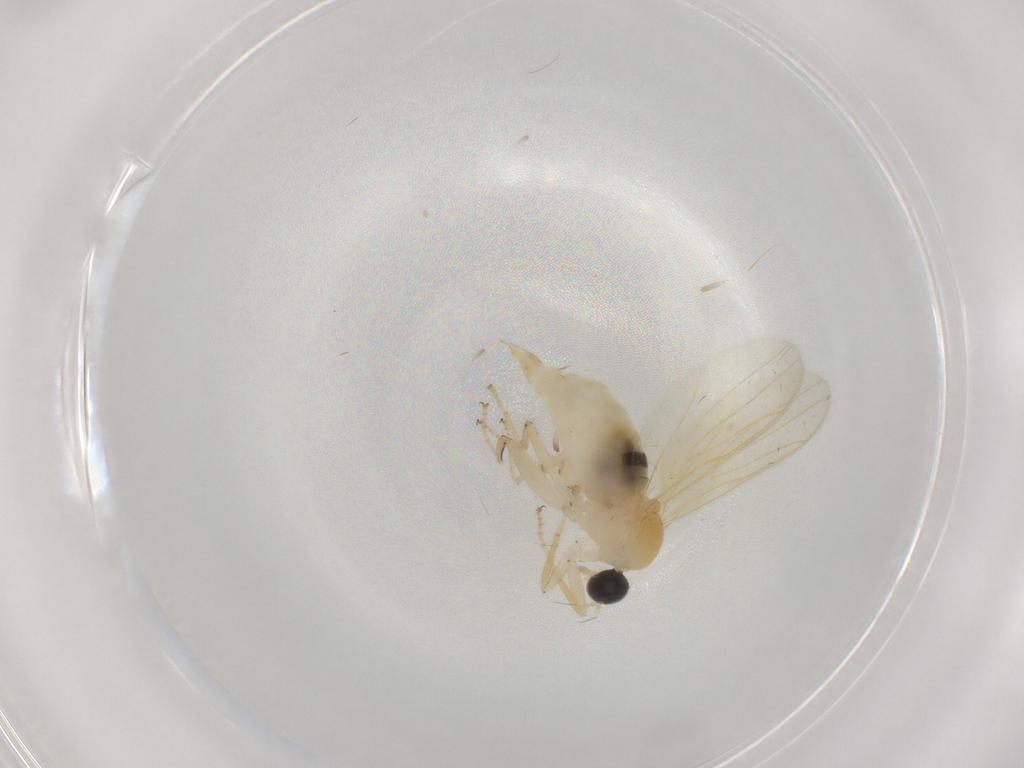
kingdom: Animalia
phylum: Arthropoda
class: Insecta
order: Diptera
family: Hybotidae
